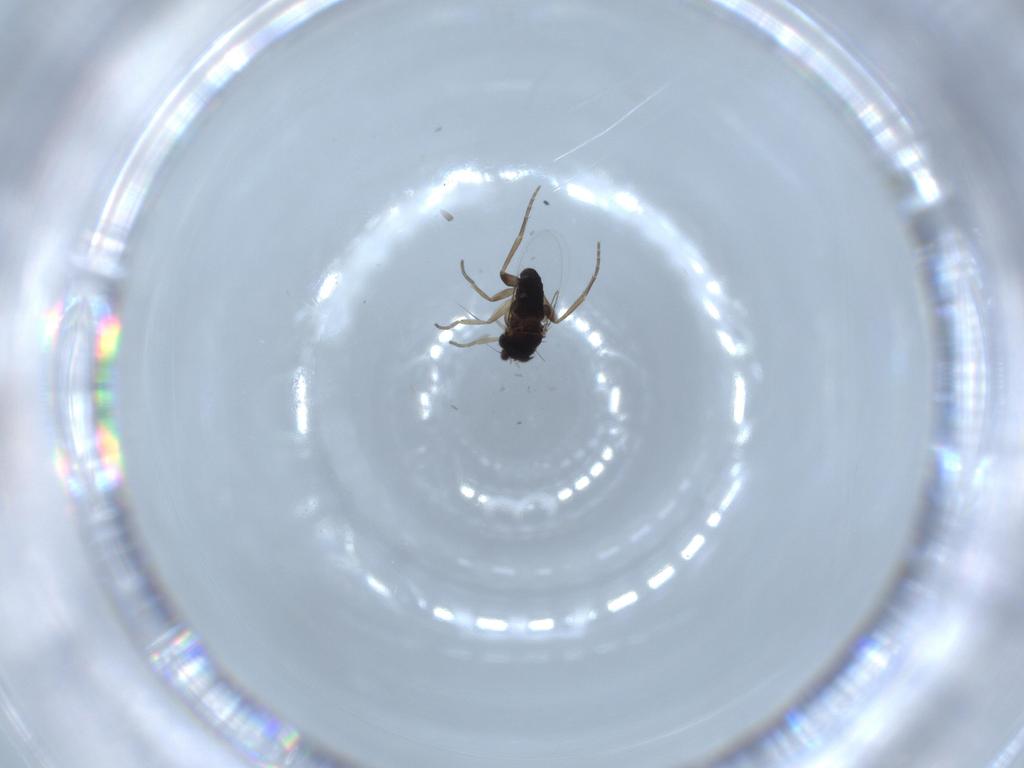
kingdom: Animalia
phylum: Arthropoda
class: Insecta
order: Diptera
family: Phoridae
